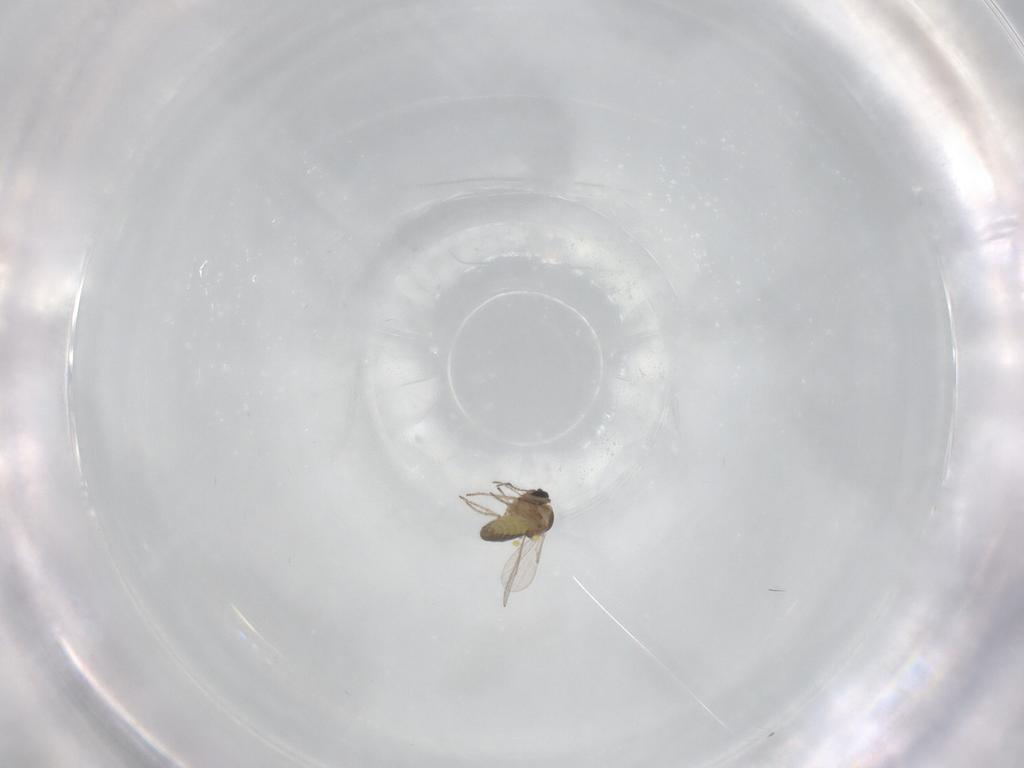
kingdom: Animalia
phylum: Arthropoda
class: Insecta
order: Diptera
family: Ceratopogonidae
